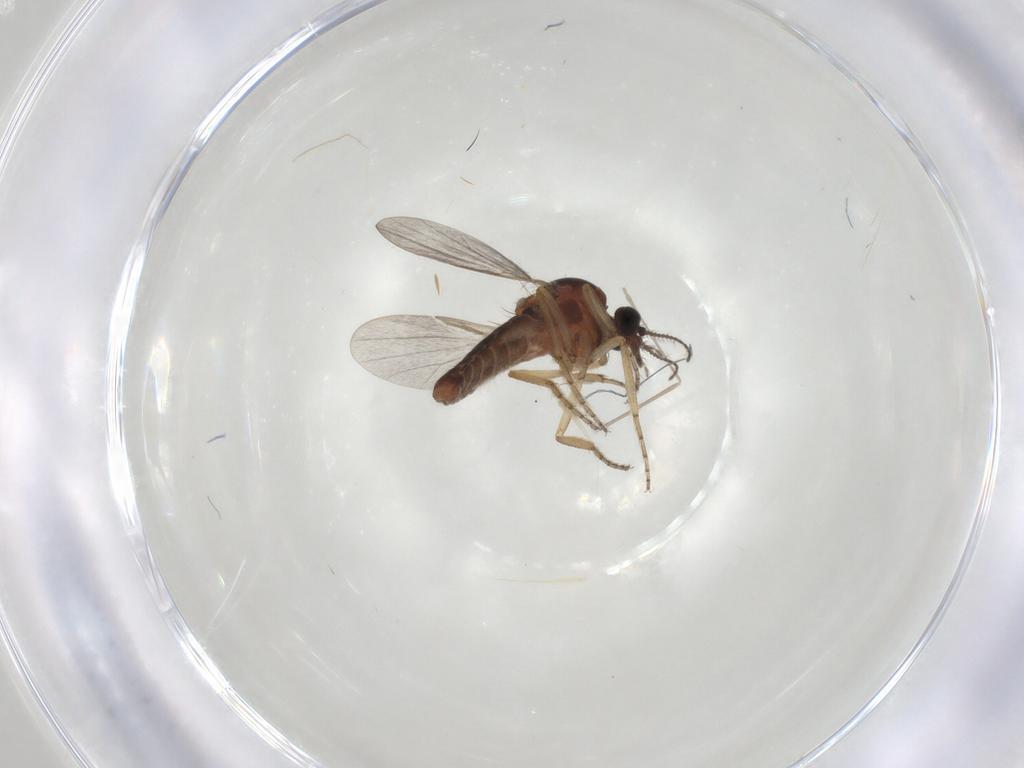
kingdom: Animalia
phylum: Arthropoda
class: Insecta
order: Diptera
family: Ceratopogonidae
